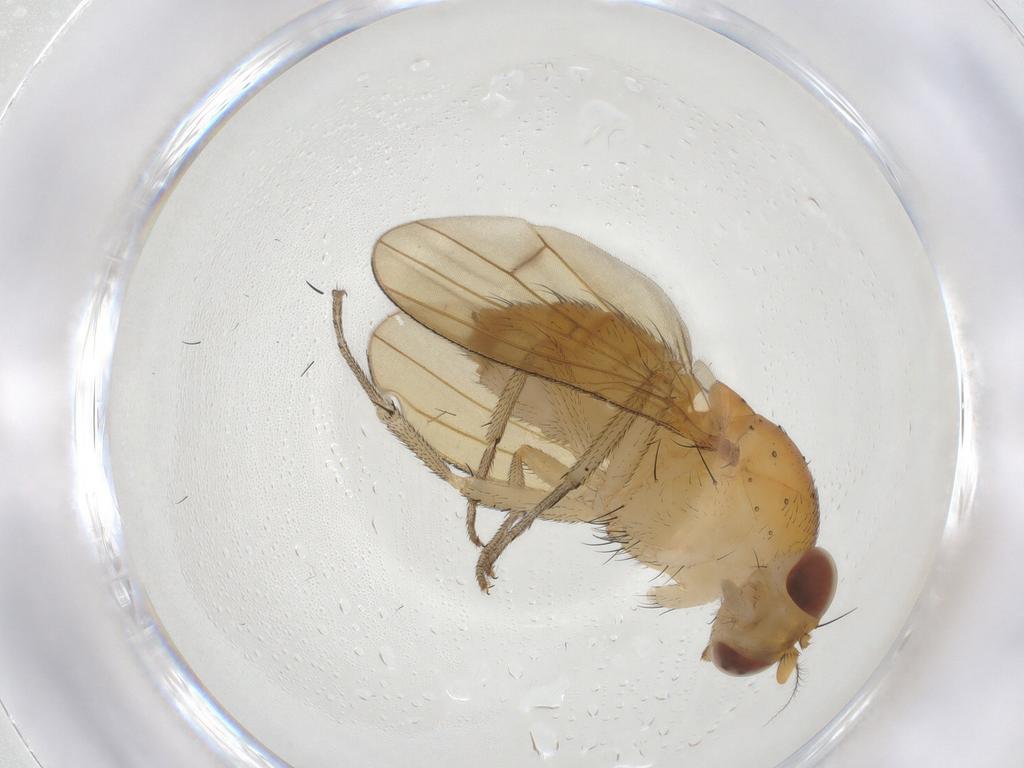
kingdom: Animalia
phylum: Arthropoda
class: Insecta
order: Diptera
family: Lauxaniidae
